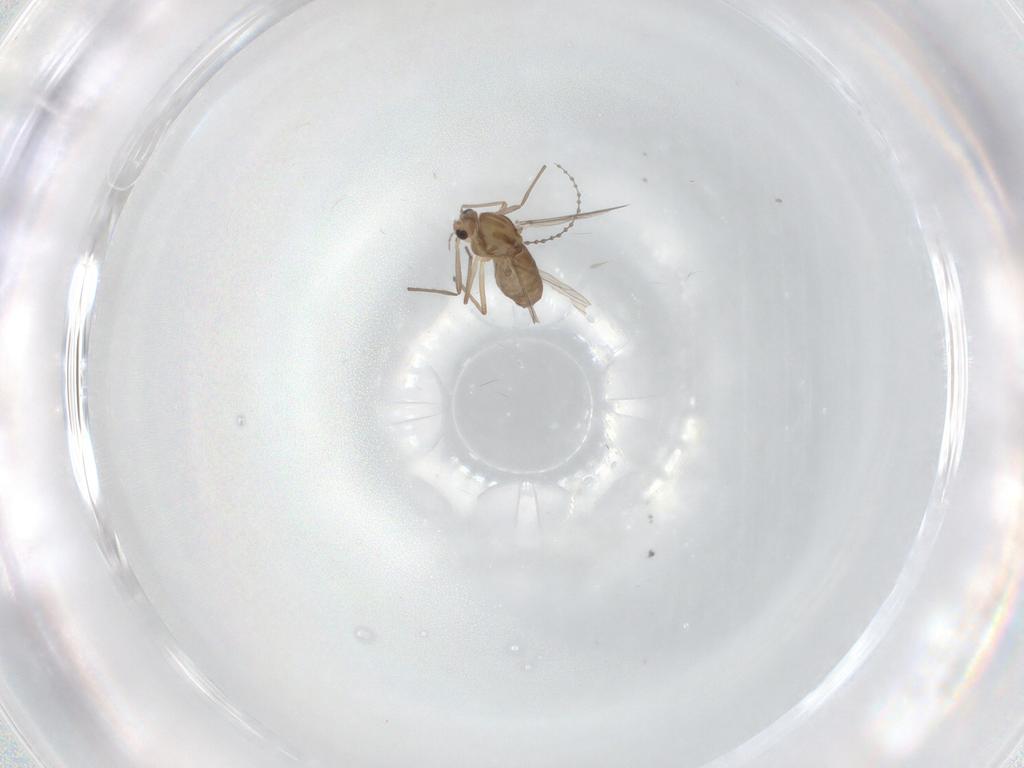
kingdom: Animalia
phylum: Arthropoda
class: Insecta
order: Diptera
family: Chironomidae
